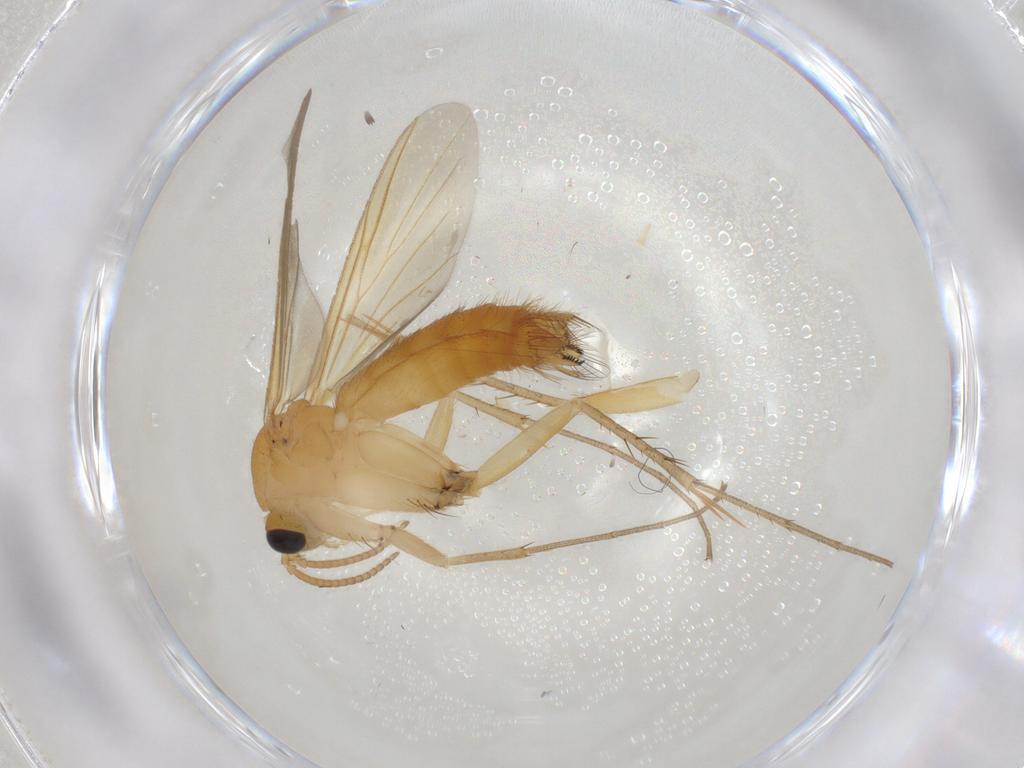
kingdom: Animalia
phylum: Arthropoda
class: Insecta
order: Diptera
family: Mycetophilidae
